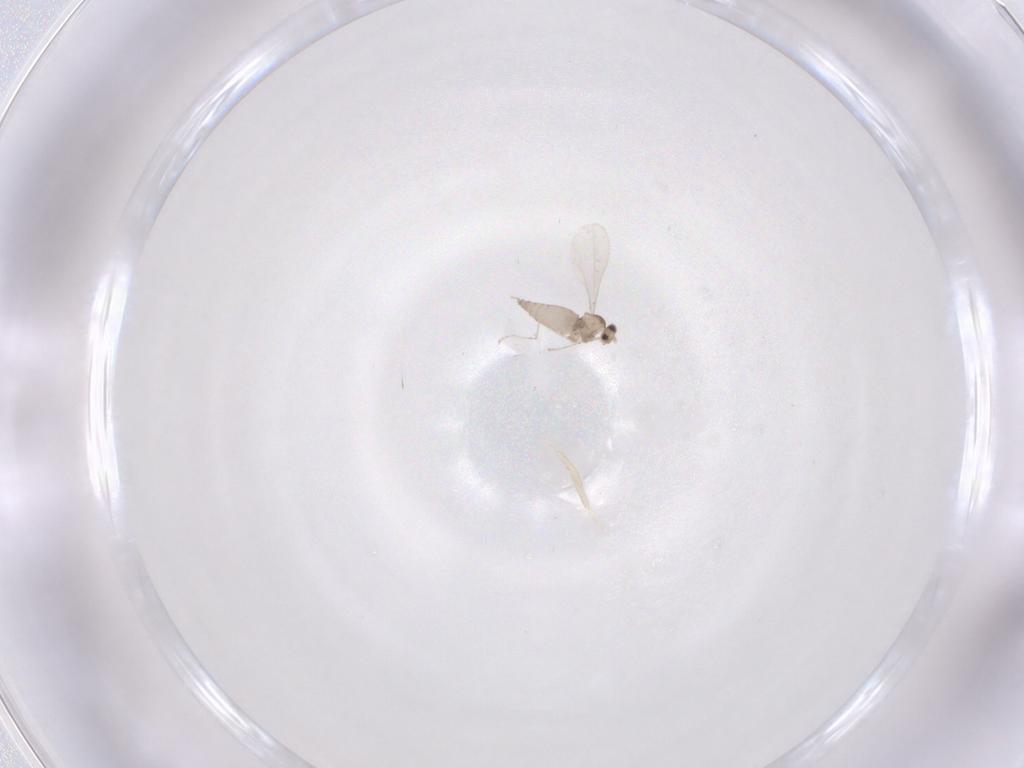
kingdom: Animalia
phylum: Arthropoda
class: Insecta
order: Diptera
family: Cecidomyiidae
